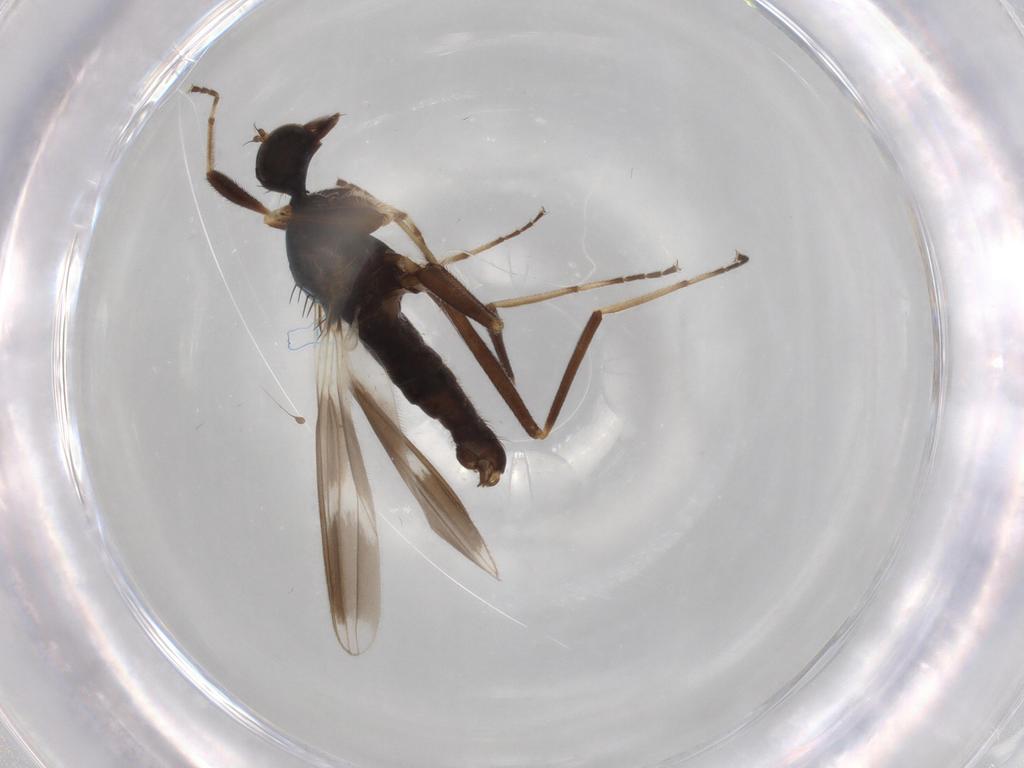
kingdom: Animalia
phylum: Arthropoda
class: Insecta
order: Diptera
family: Hybotidae
